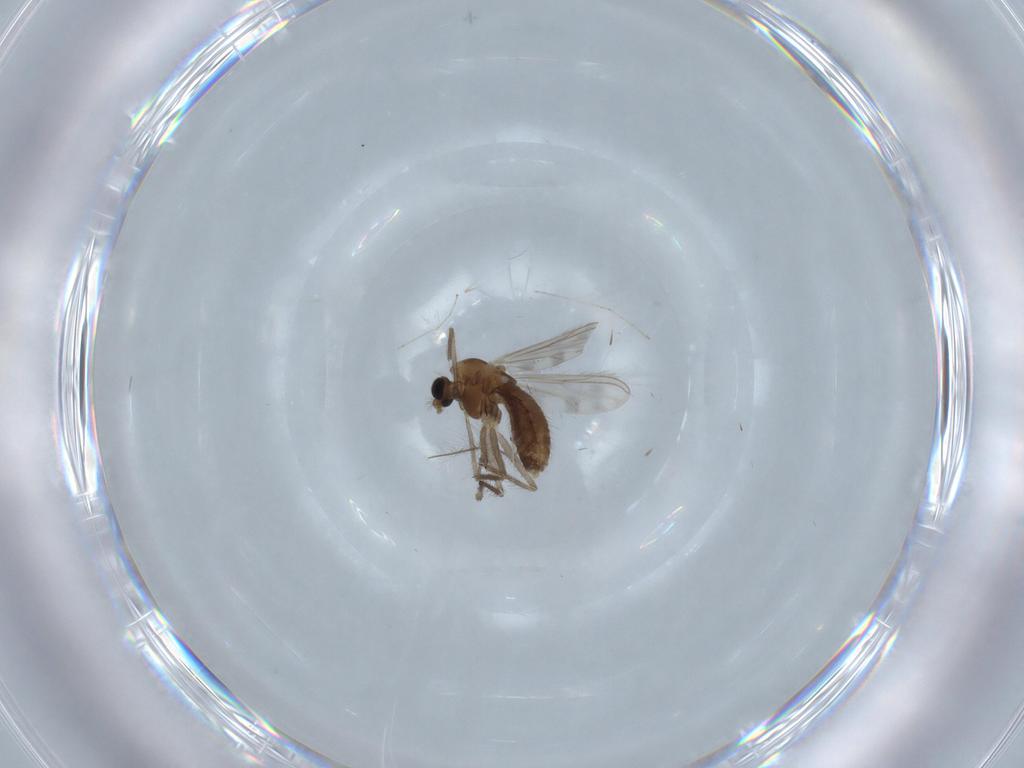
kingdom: Animalia
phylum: Arthropoda
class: Insecta
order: Diptera
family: Chironomidae
